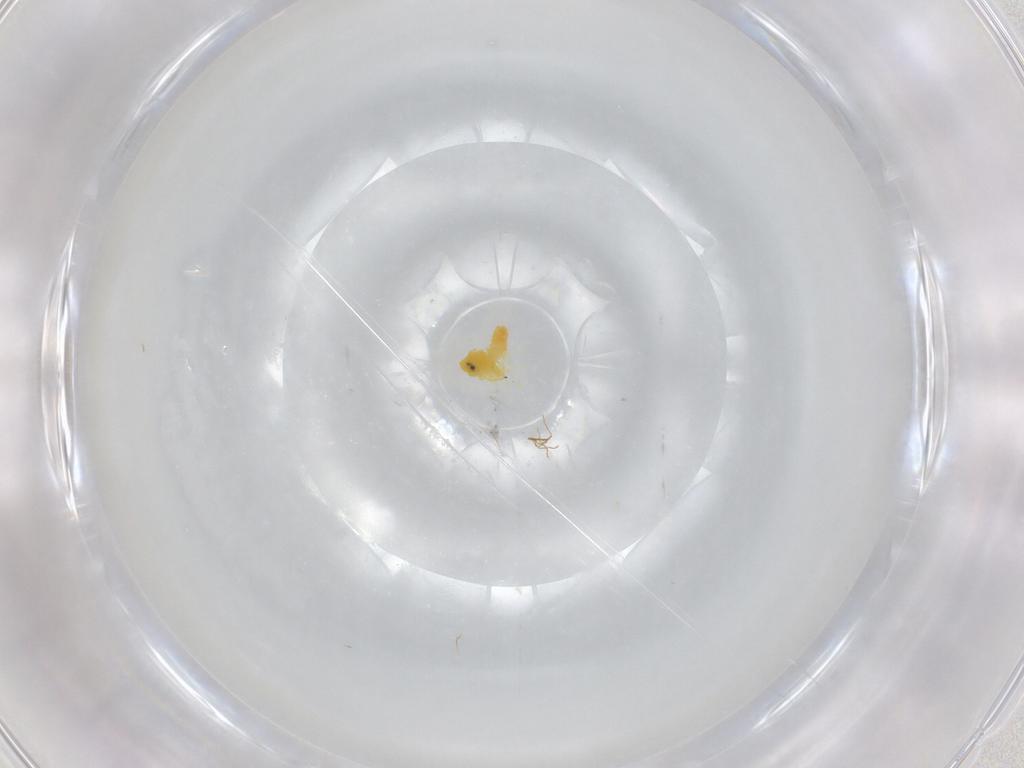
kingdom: Animalia
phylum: Arthropoda
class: Insecta
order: Hemiptera
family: Aleyrodidae
